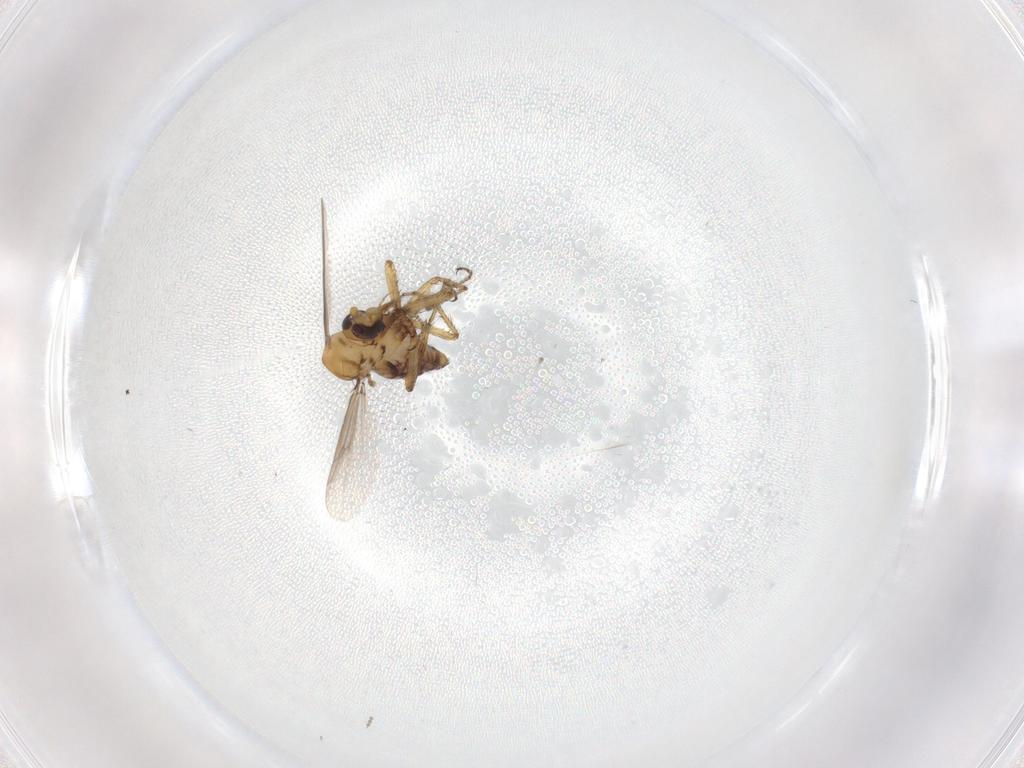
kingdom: Animalia
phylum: Arthropoda
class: Insecta
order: Diptera
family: Ceratopogonidae
